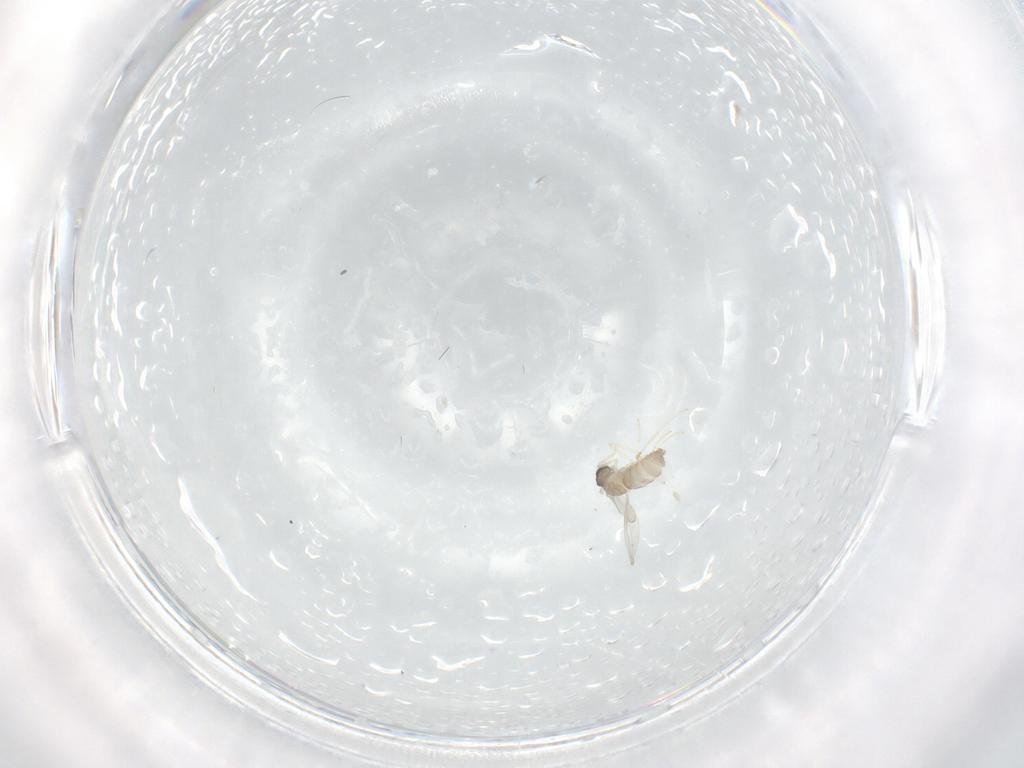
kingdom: Animalia
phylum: Arthropoda
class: Insecta
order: Diptera
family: Cecidomyiidae
